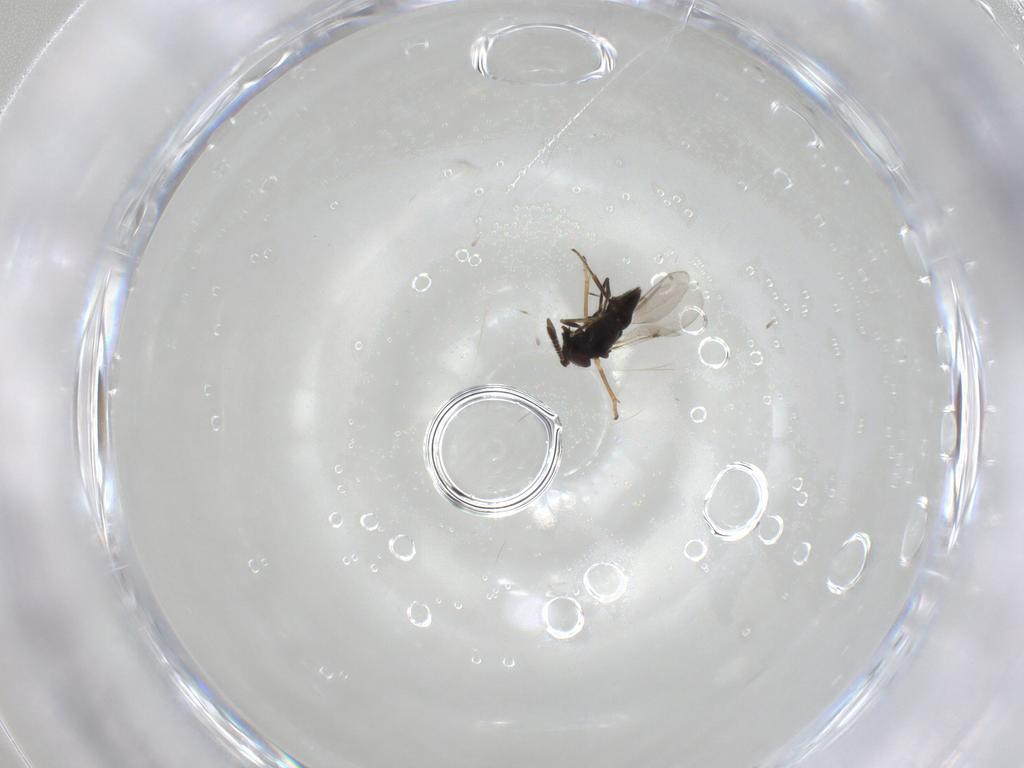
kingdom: Animalia
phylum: Arthropoda
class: Insecta
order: Hymenoptera
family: Encyrtidae
